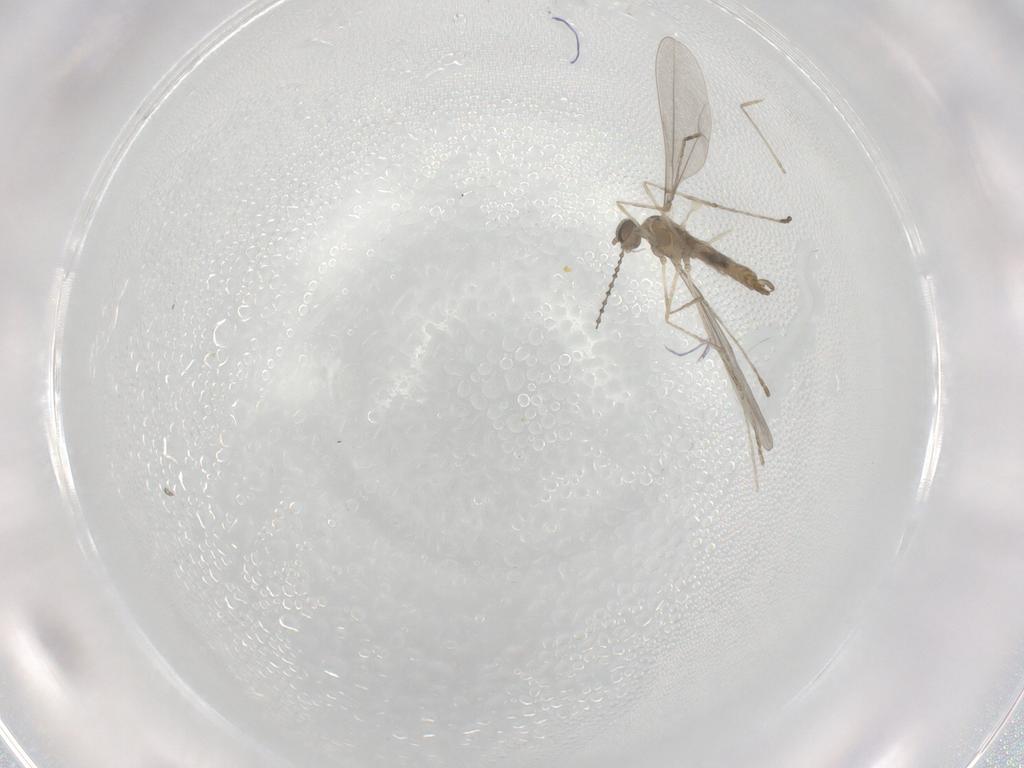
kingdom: Animalia
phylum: Arthropoda
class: Insecta
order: Diptera
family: Cecidomyiidae
